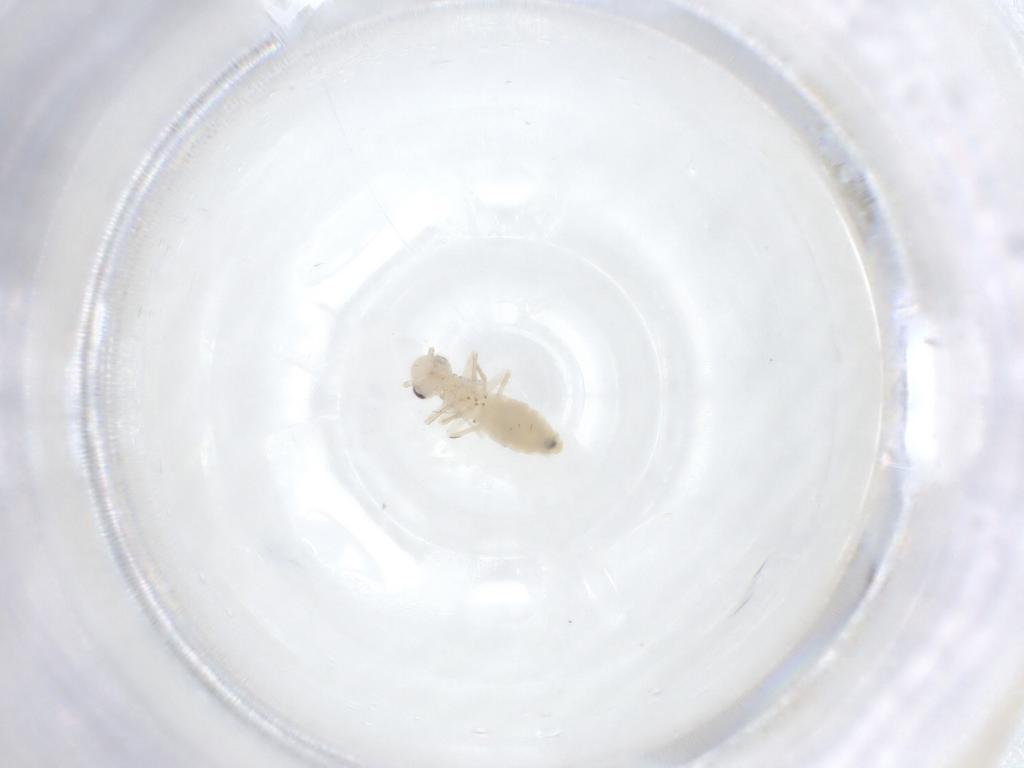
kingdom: Animalia
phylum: Arthropoda
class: Insecta
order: Psocodea
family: Caeciliusidae
